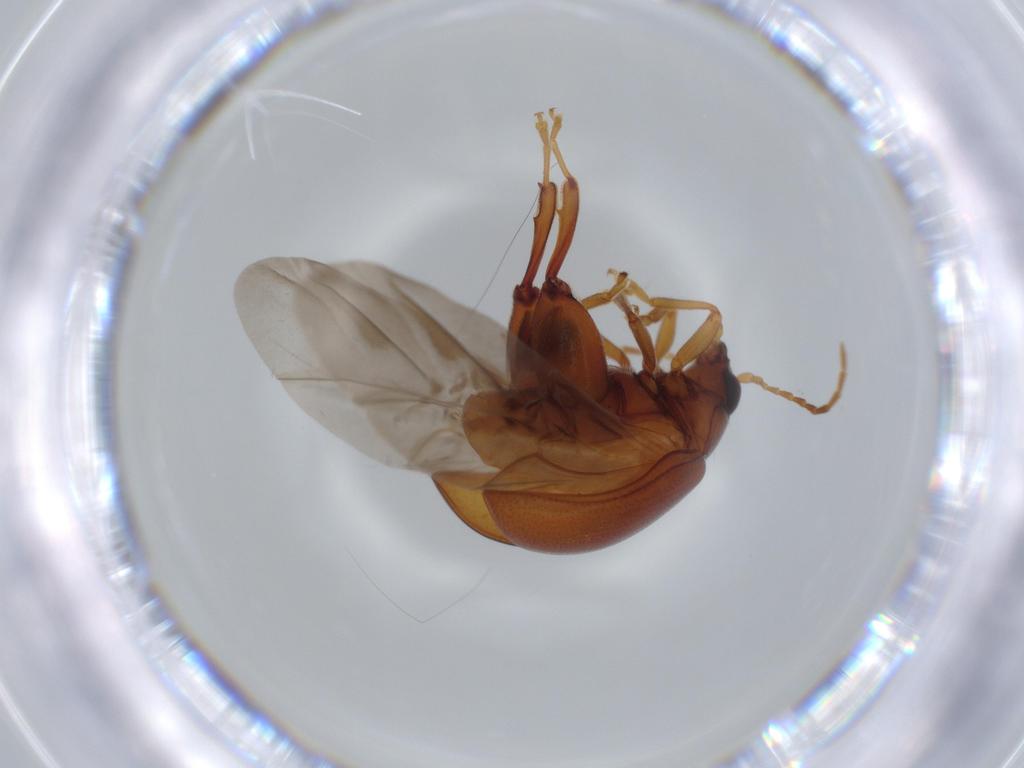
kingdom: Animalia
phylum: Arthropoda
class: Insecta
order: Coleoptera
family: Chrysomelidae
